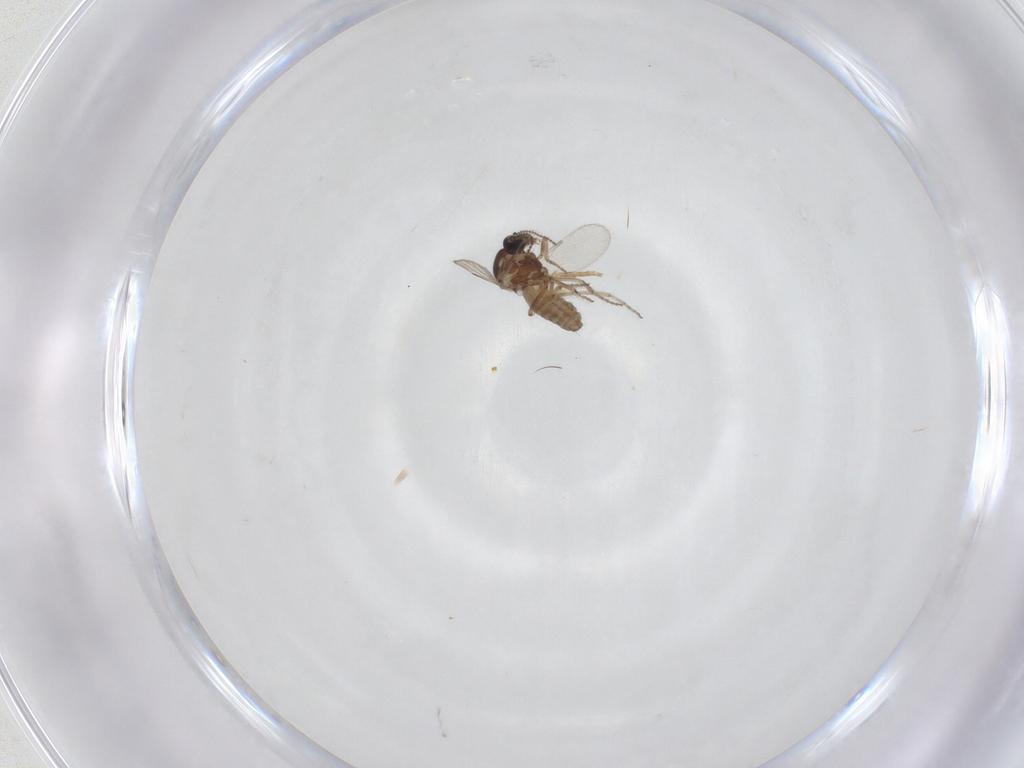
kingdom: Animalia
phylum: Arthropoda
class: Insecta
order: Diptera
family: Ceratopogonidae
